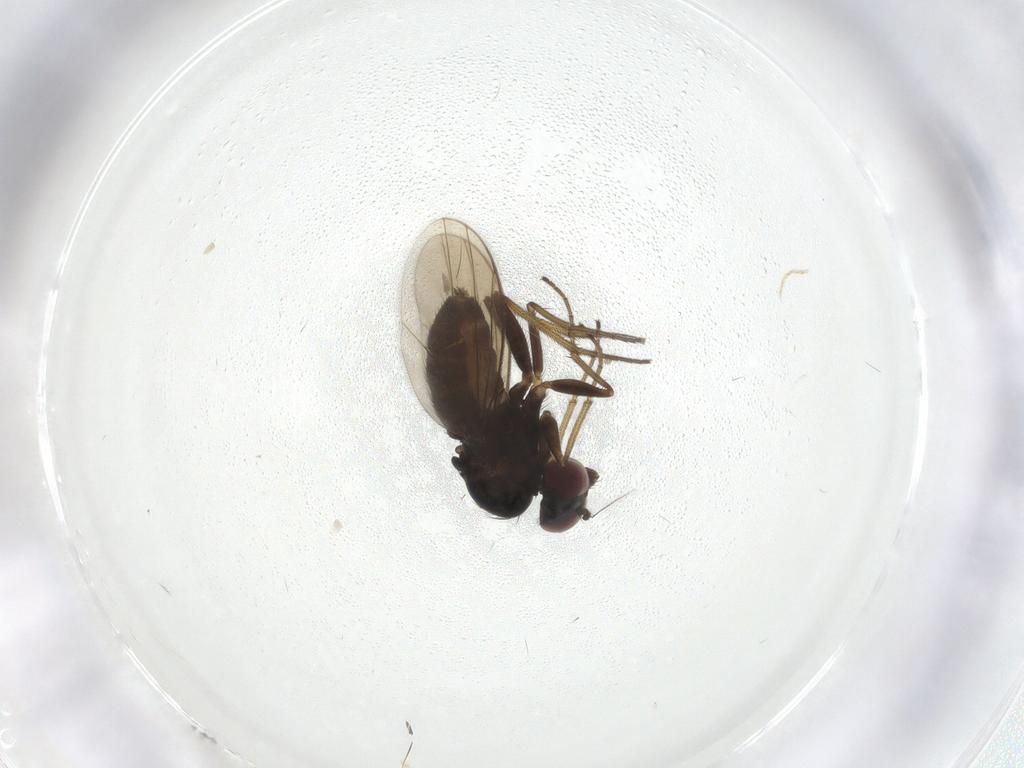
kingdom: Animalia
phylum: Arthropoda
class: Insecta
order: Diptera
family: Dolichopodidae
